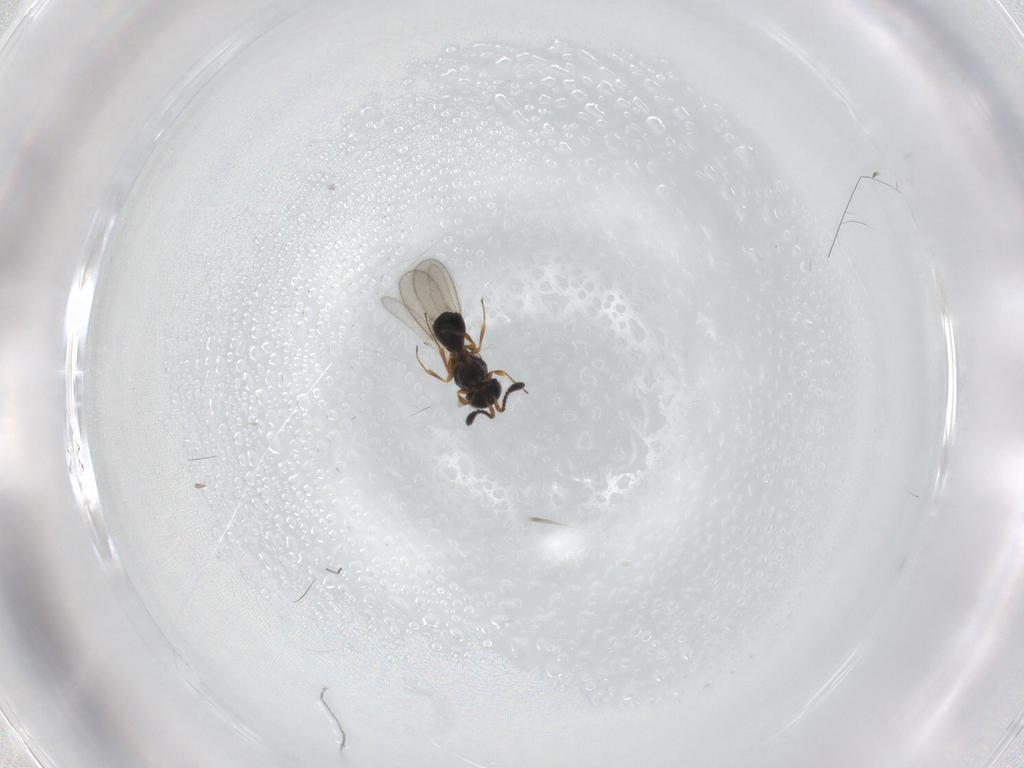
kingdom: Animalia
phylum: Arthropoda
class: Insecta
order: Hymenoptera
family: Scelionidae
